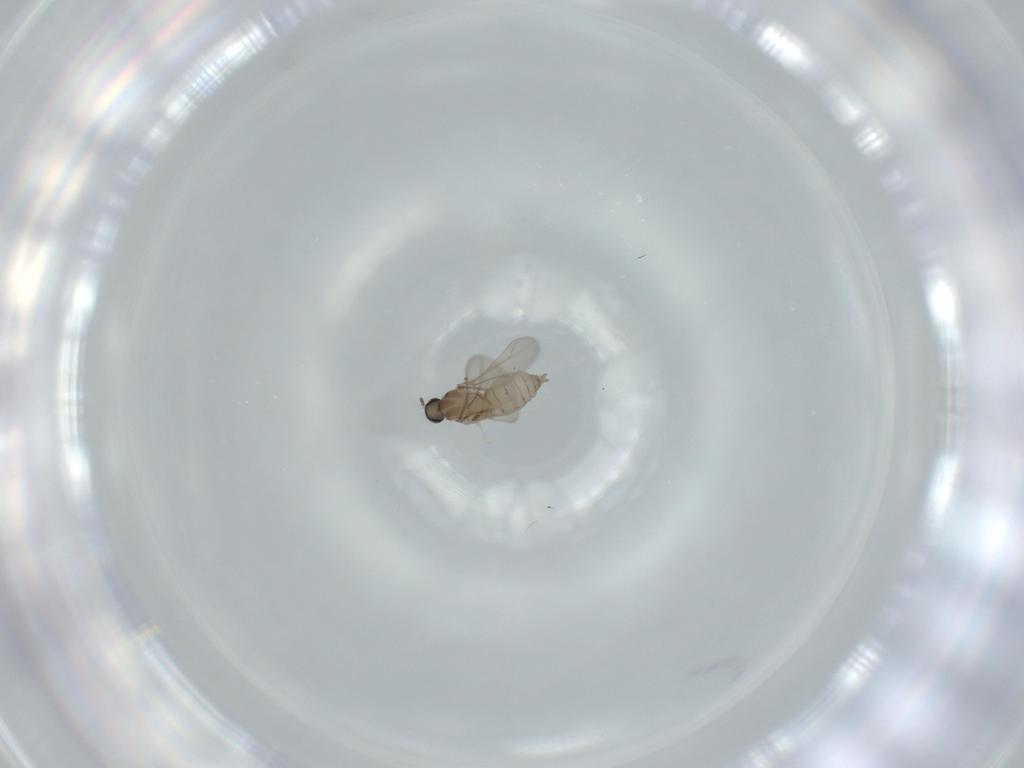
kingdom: Animalia
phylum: Arthropoda
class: Insecta
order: Diptera
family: Cecidomyiidae
